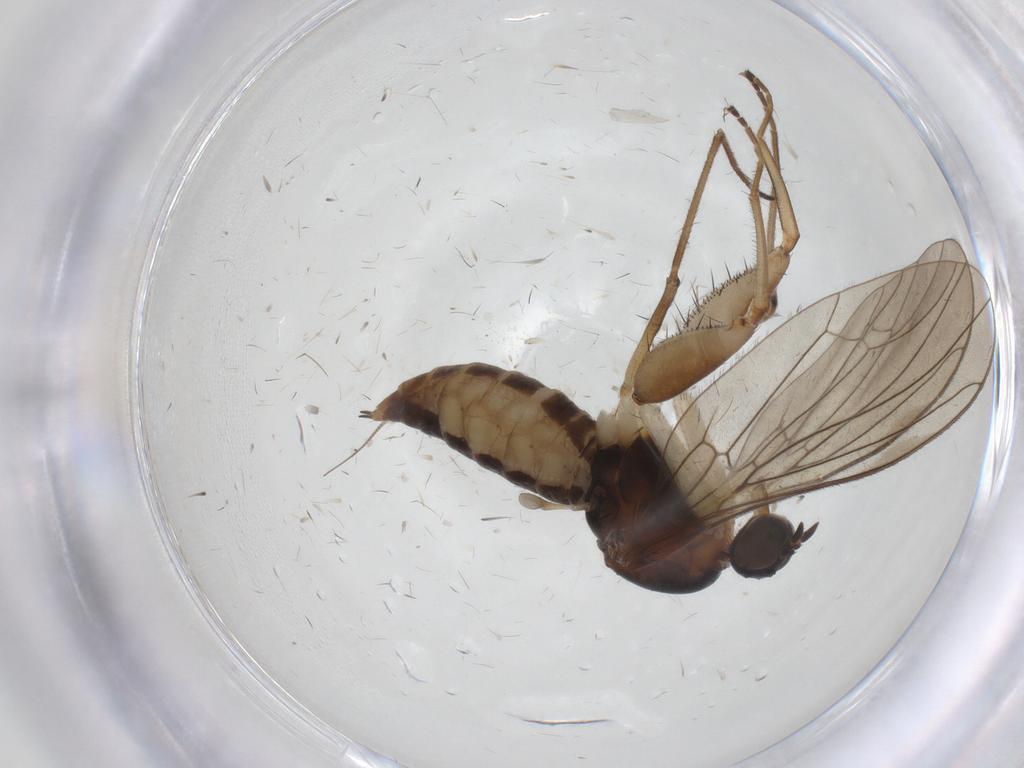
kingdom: Animalia
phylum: Arthropoda
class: Insecta
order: Diptera
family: Empididae
